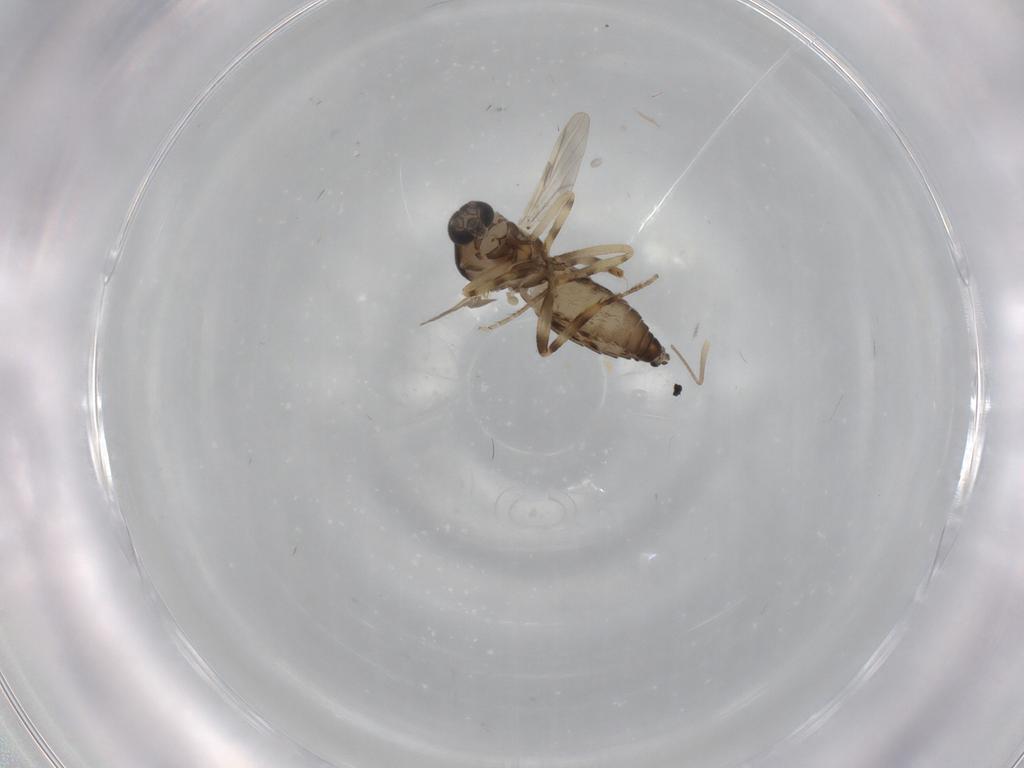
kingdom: Animalia
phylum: Arthropoda
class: Insecta
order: Diptera
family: Ceratopogonidae
